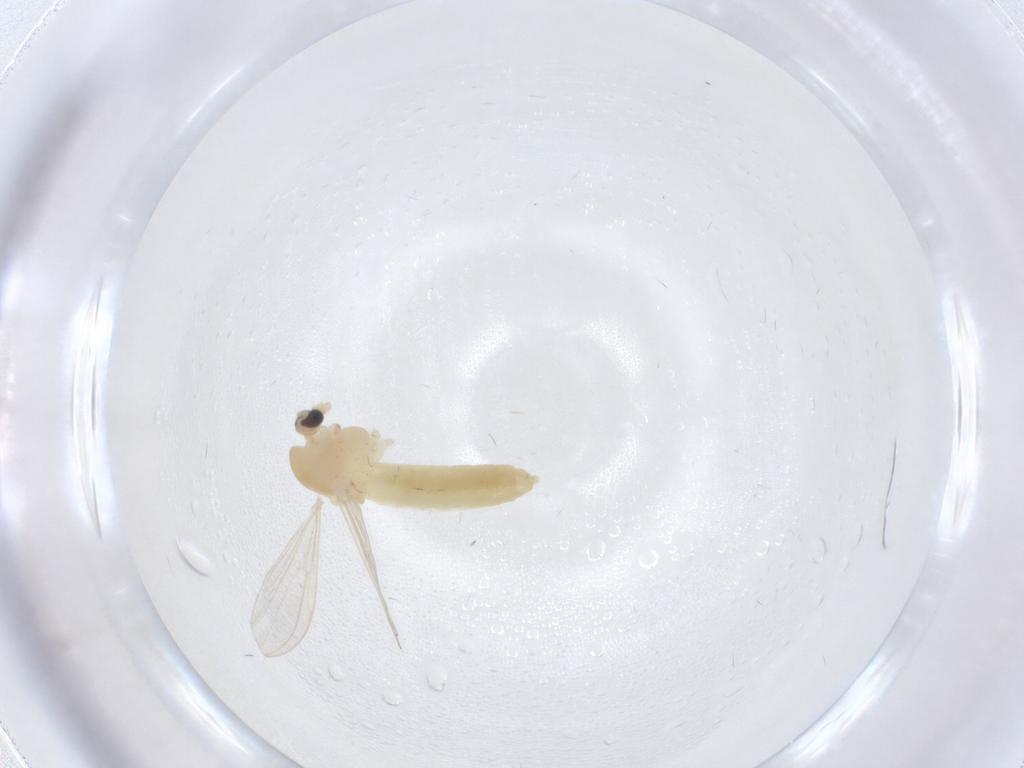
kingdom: Animalia
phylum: Arthropoda
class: Insecta
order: Diptera
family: Chironomidae
